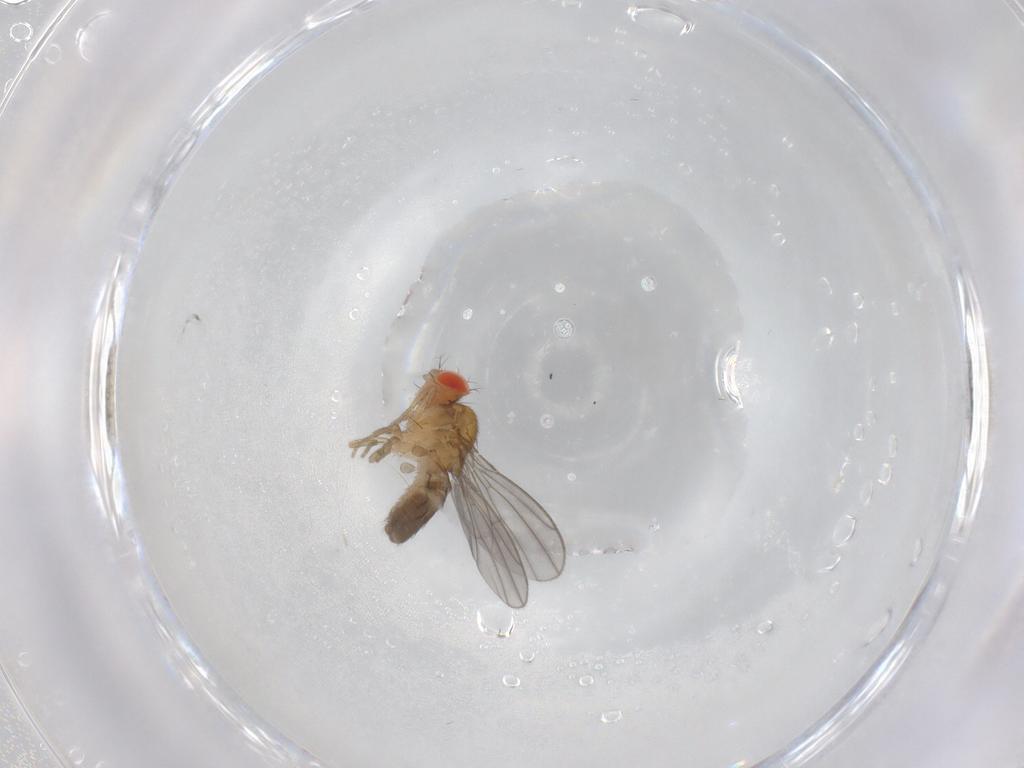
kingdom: Animalia
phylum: Arthropoda
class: Insecta
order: Diptera
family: Drosophilidae
